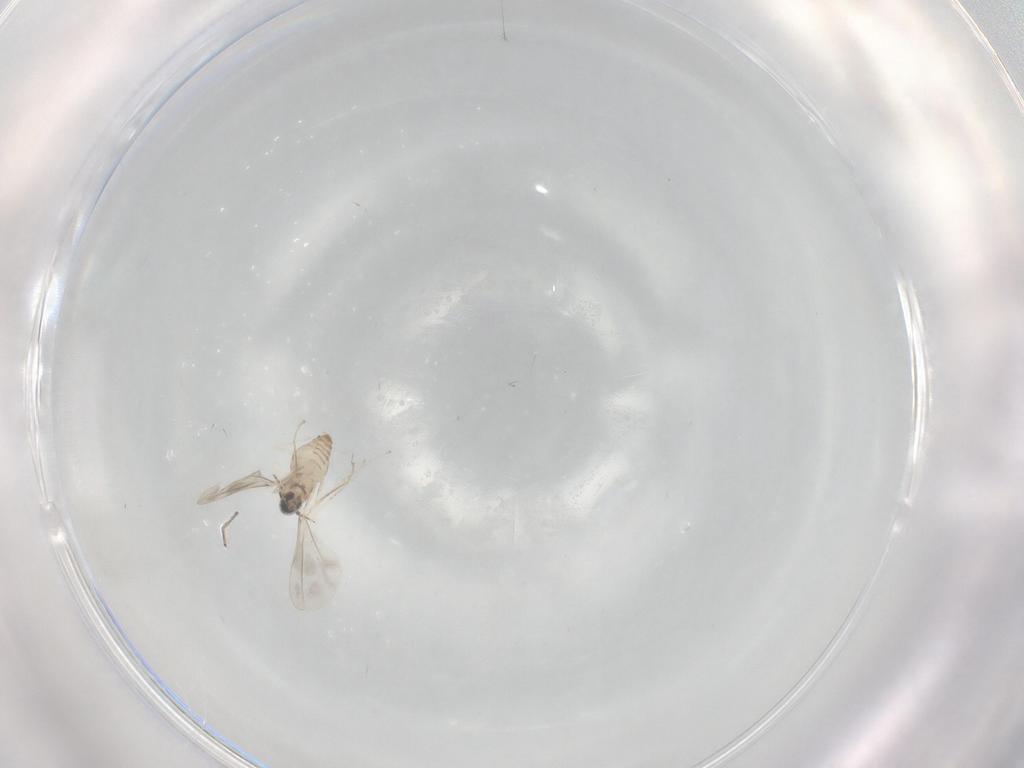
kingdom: Animalia
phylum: Arthropoda
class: Insecta
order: Diptera
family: Cecidomyiidae
